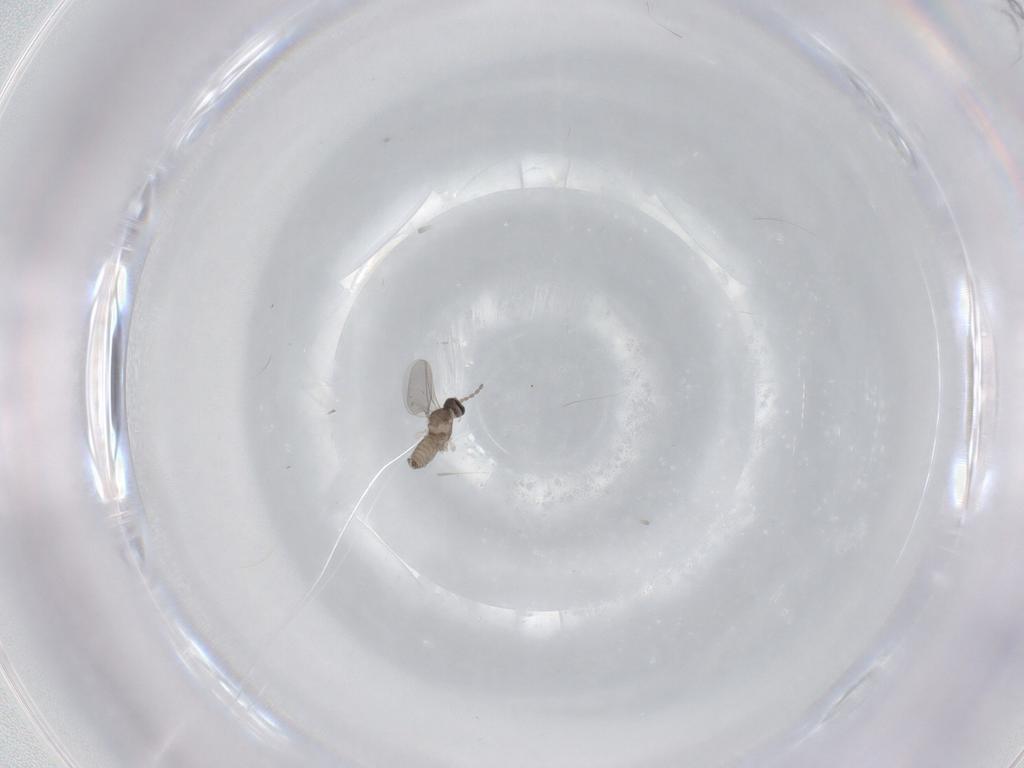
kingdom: Animalia
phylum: Arthropoda
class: Insecta
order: Diptera
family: Cecidomyiidae
